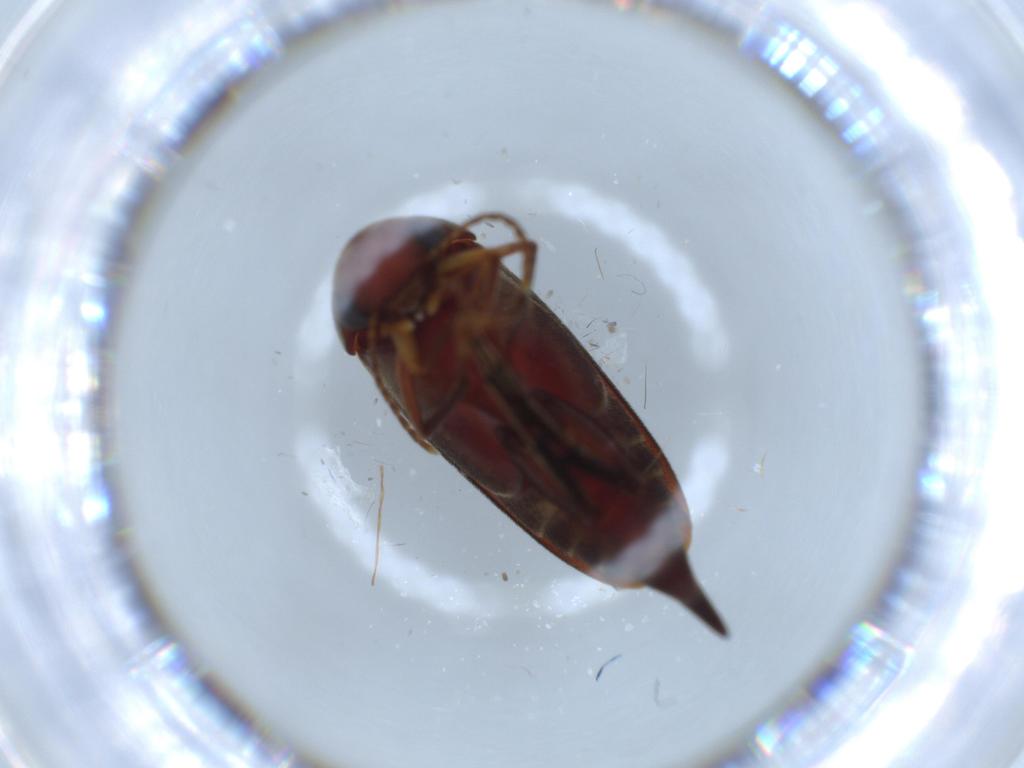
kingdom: Animalia
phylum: Arthropoda
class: Insecta
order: Coleoptera
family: Mordellidae
